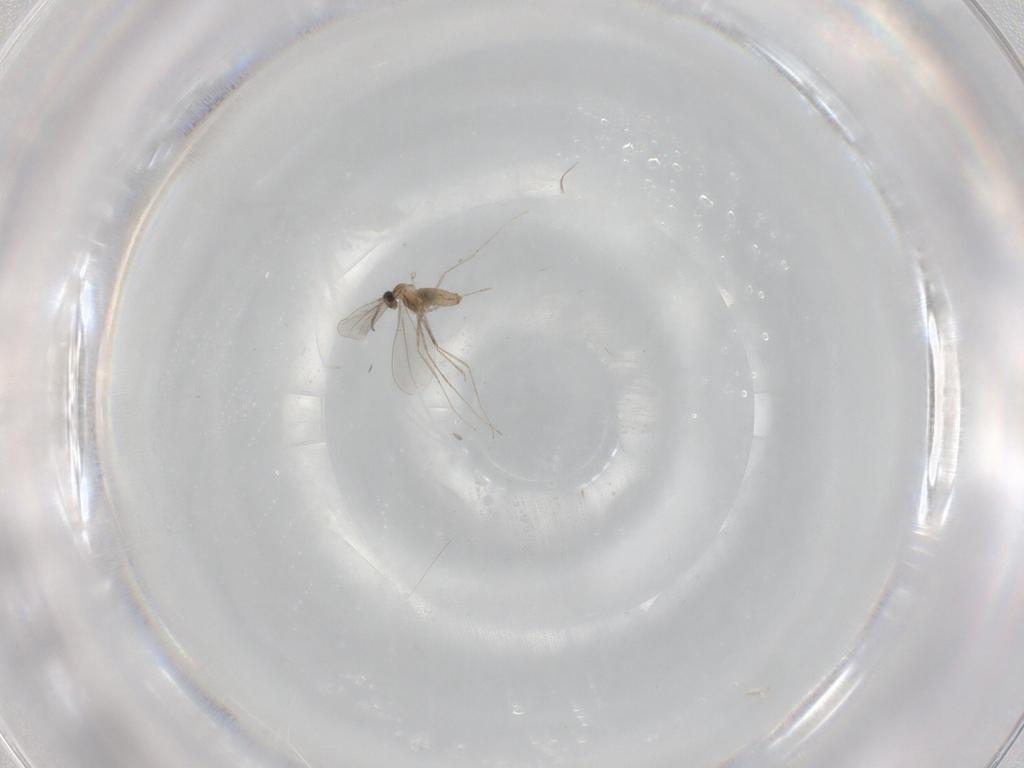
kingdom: Animalia
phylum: Arthropoda
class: Insecta
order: Diptera
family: Cecidomyiidae
